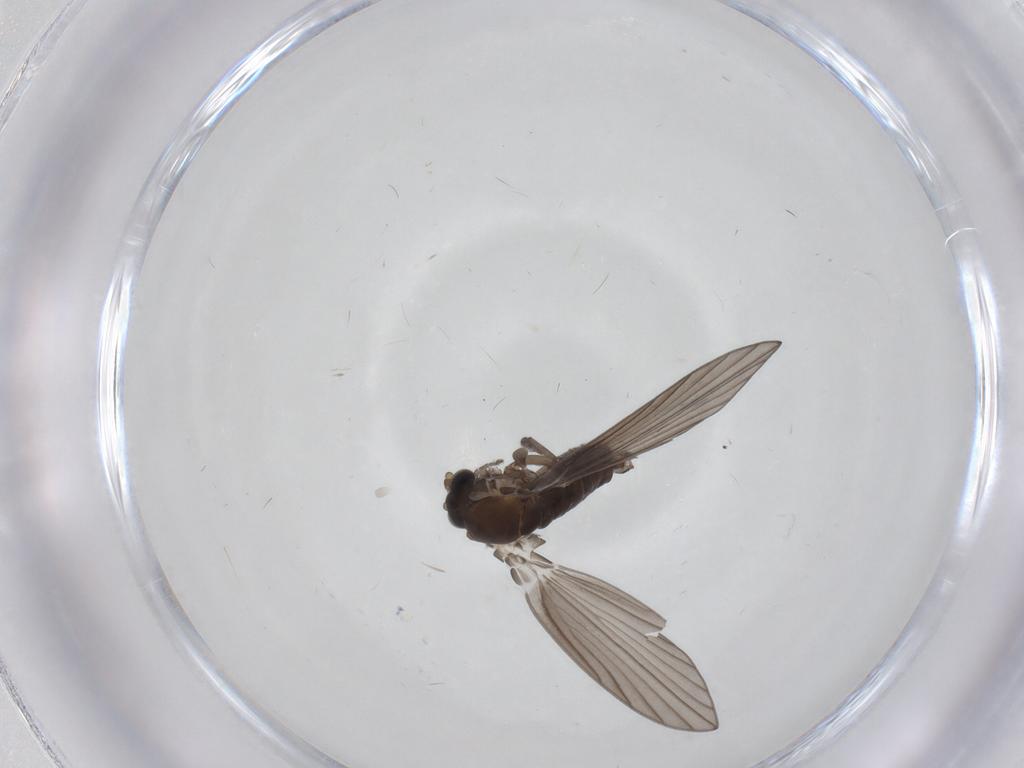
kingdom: Animalia
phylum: Arthropoda
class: Insecta
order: Diptera
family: Psychodidae
